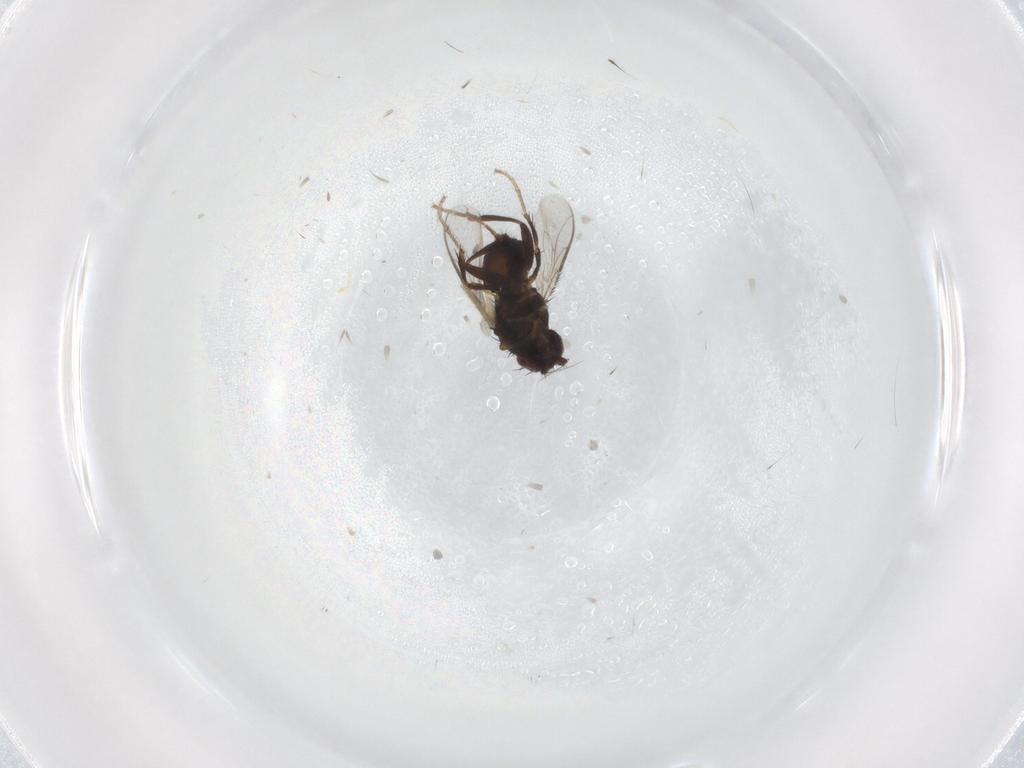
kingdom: Animalia
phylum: Arthropoda
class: Insecta
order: Diptera
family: Sphaeroceridae
